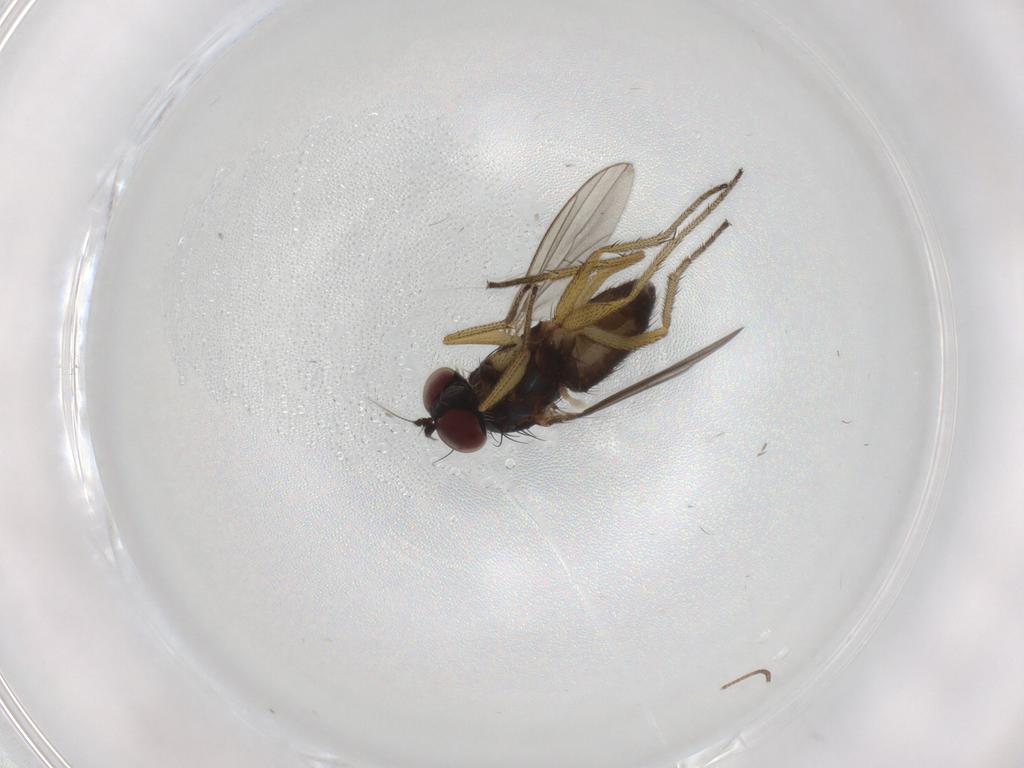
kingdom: Animalia
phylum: Arthropoda
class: Insecta
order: Diptera
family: Dolichopodidae
